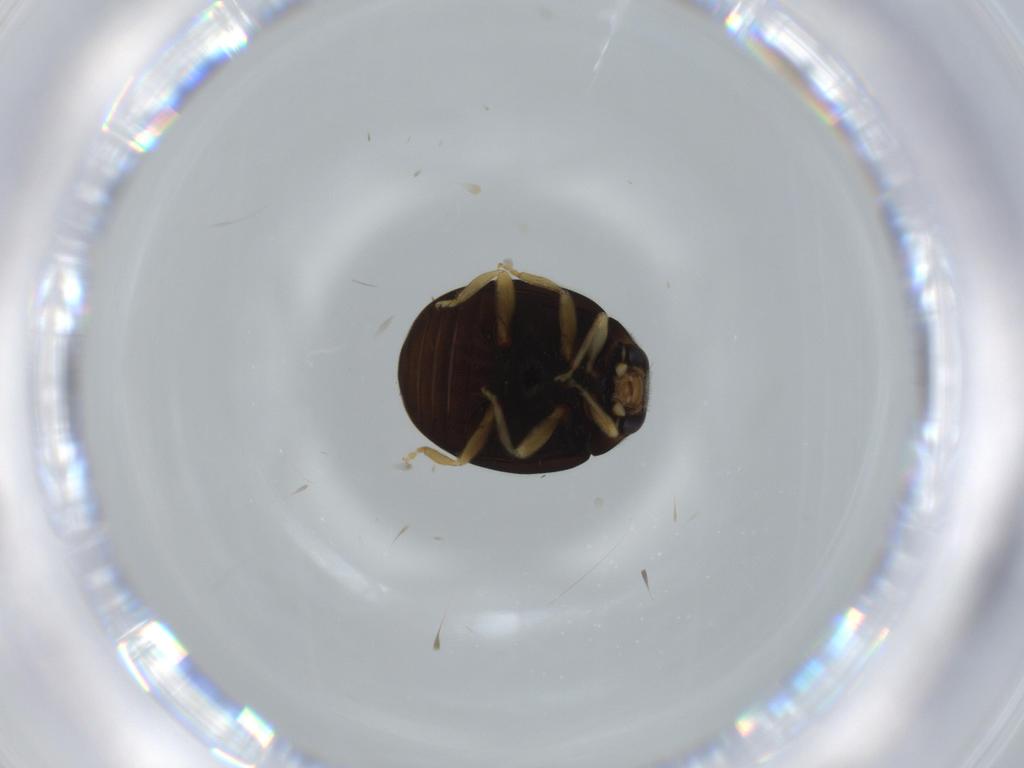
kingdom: Animalia
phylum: Arthropoda
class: Insecta
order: Coleoptera
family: Coccinellidae
